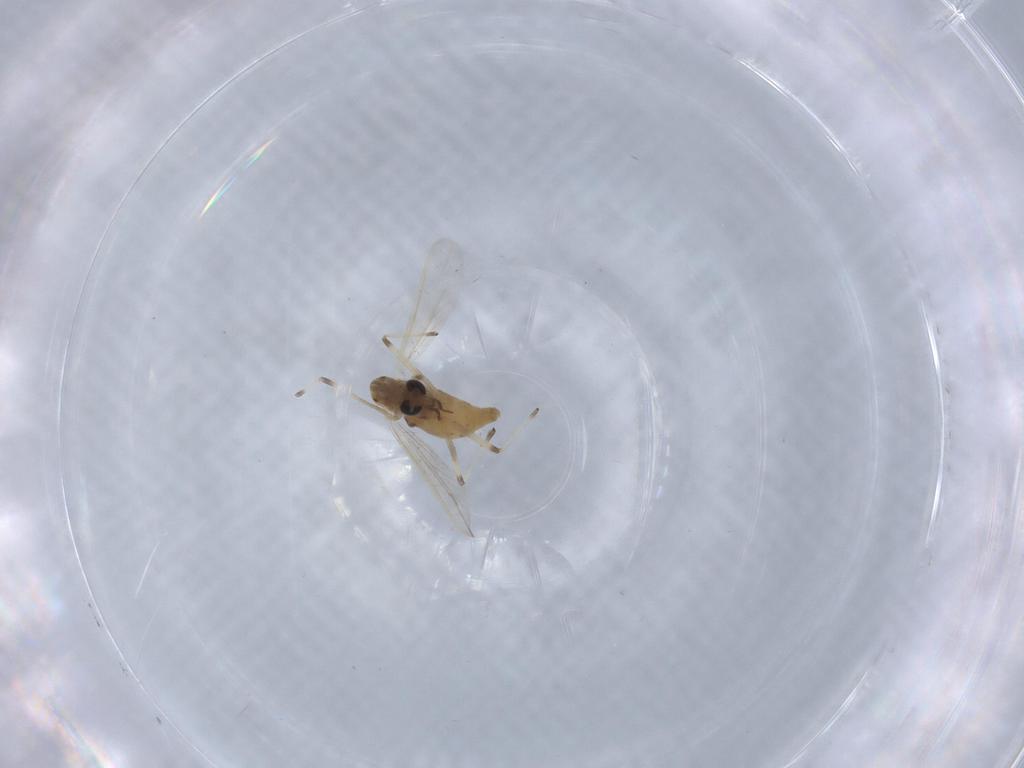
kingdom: Animalia
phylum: Arthropoda
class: Insecta
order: Diptera
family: Chironomidae
